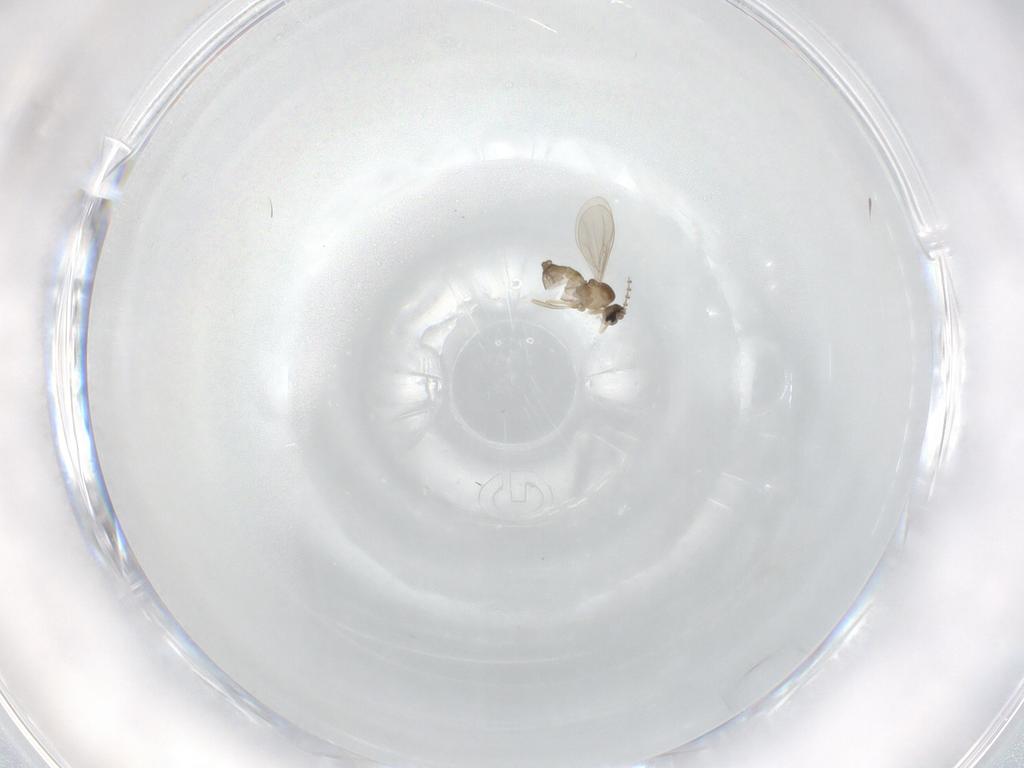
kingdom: Animalia
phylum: Arthropoda
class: Insecta
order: Diptera
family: Cecidomyiidae
